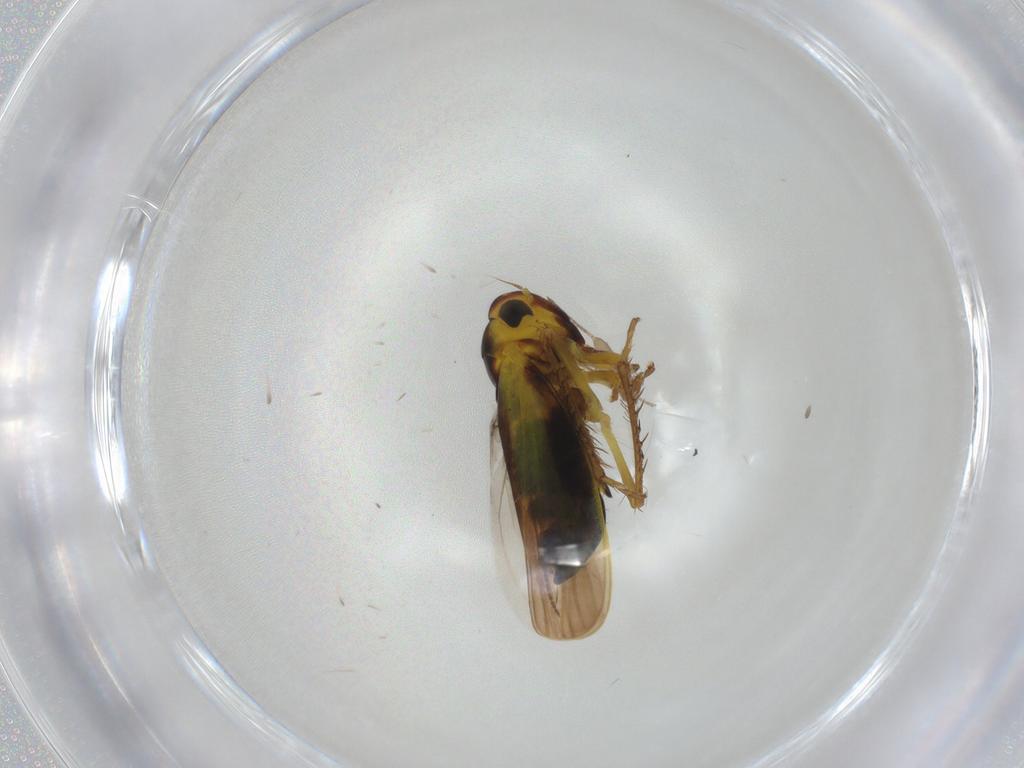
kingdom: Animalia
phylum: Arthropoda
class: Insecta
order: Hemiptera
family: Cicadellidae
